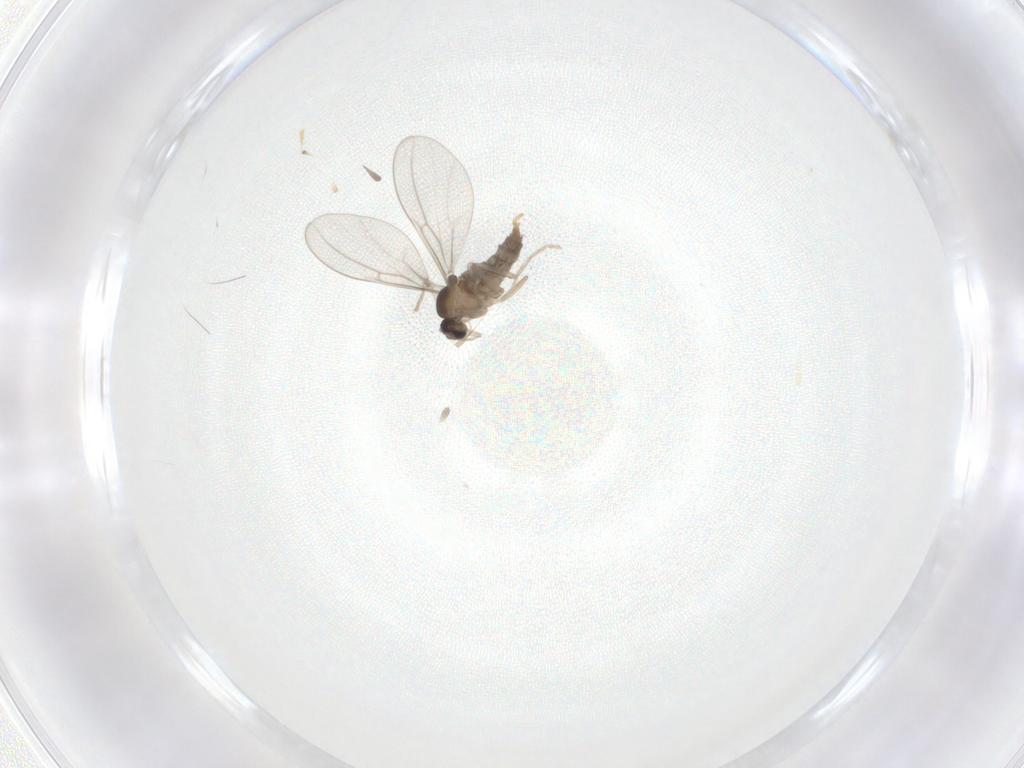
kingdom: Animalia
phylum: Arthropoda
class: Insecta
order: Diptera
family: Cecidomyiidae
